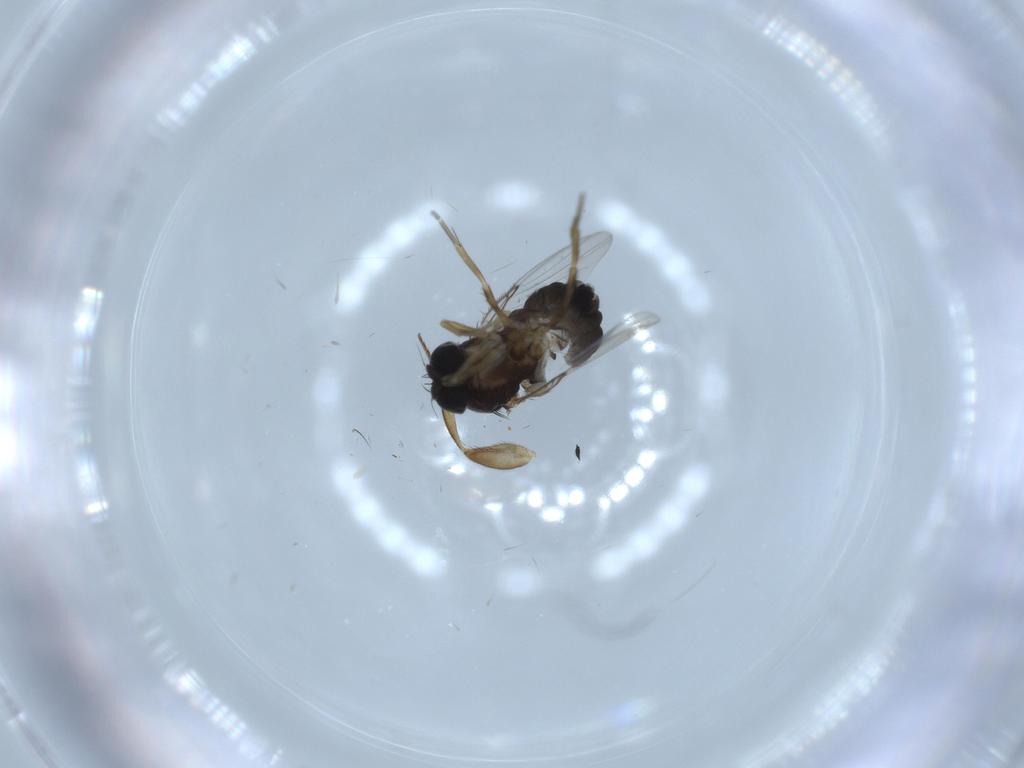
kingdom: Animalia
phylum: Arthropoda
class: Insecta
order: Diptera
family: Phoridae
